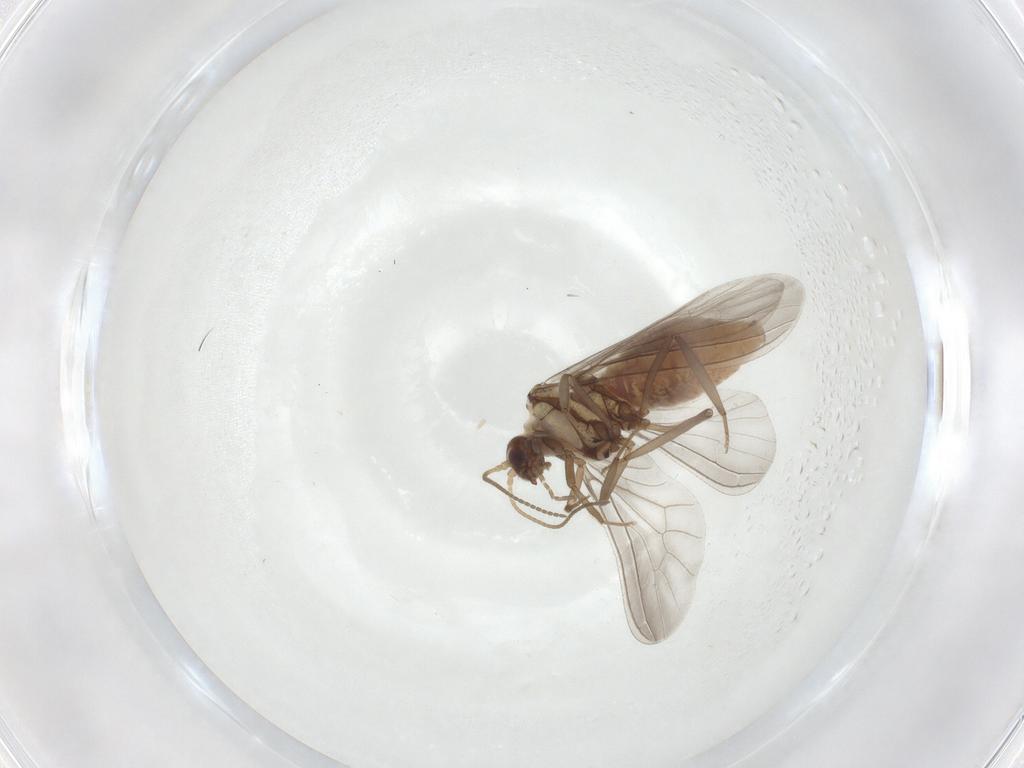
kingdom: Animalia
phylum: Arthropoda
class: Insecta
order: Neuroptera
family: Coniopterygidae
